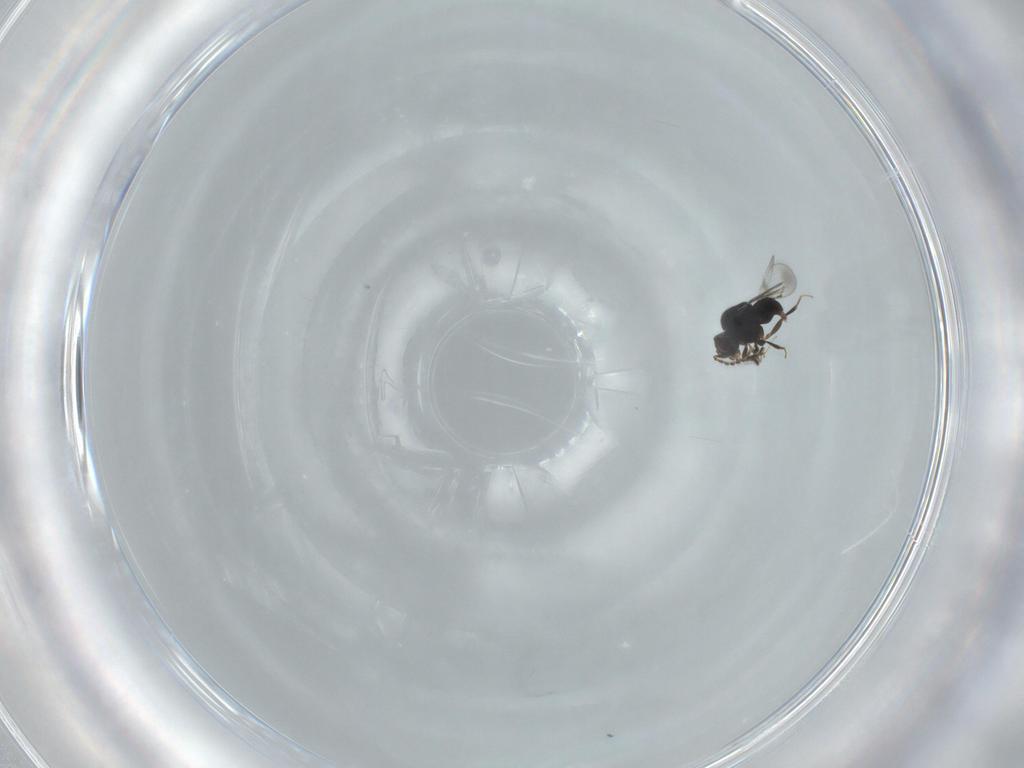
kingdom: Animalia
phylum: Arthropoda
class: Insecta
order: Hymenoptera
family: Ceraphronidae
